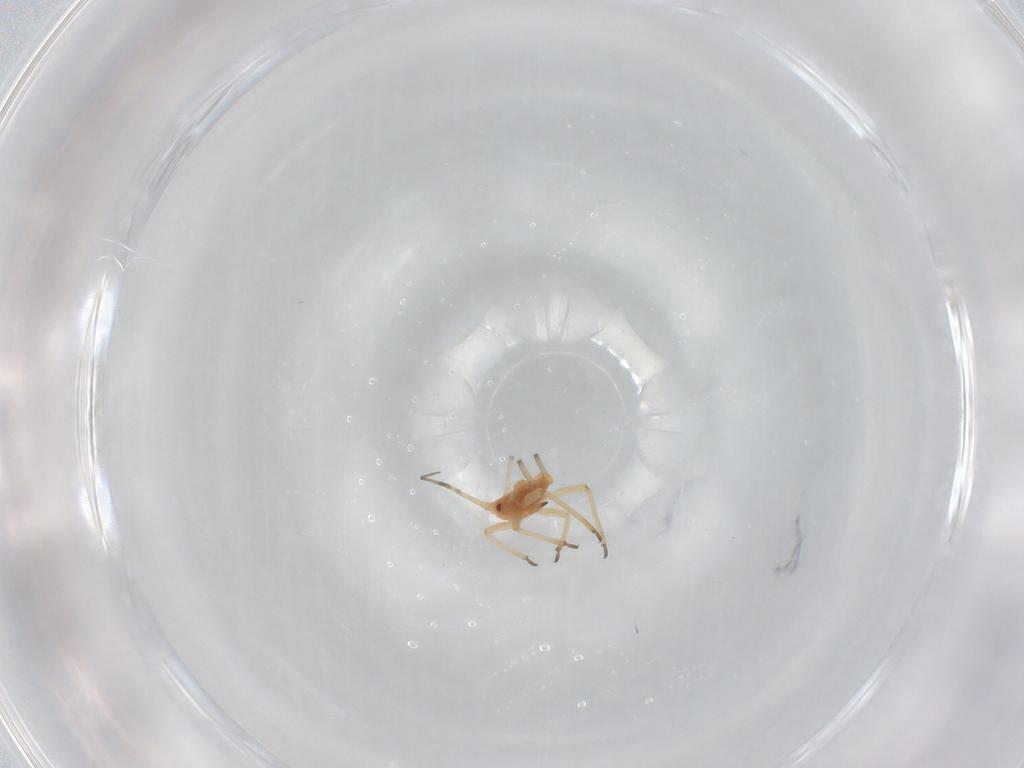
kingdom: Animalia
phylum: Arthropoda
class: Insecta
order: Hemiptera
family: Aphididae
